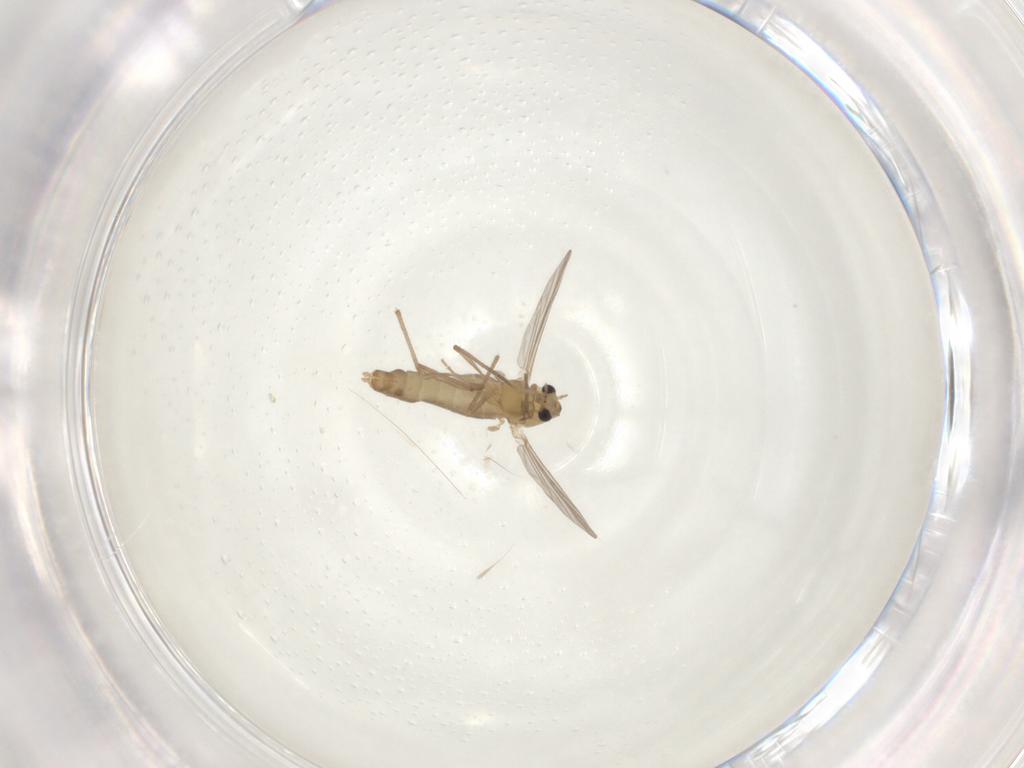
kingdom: Animalia
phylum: Arthropoda
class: Insecta
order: Diptera
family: Chironomidae
